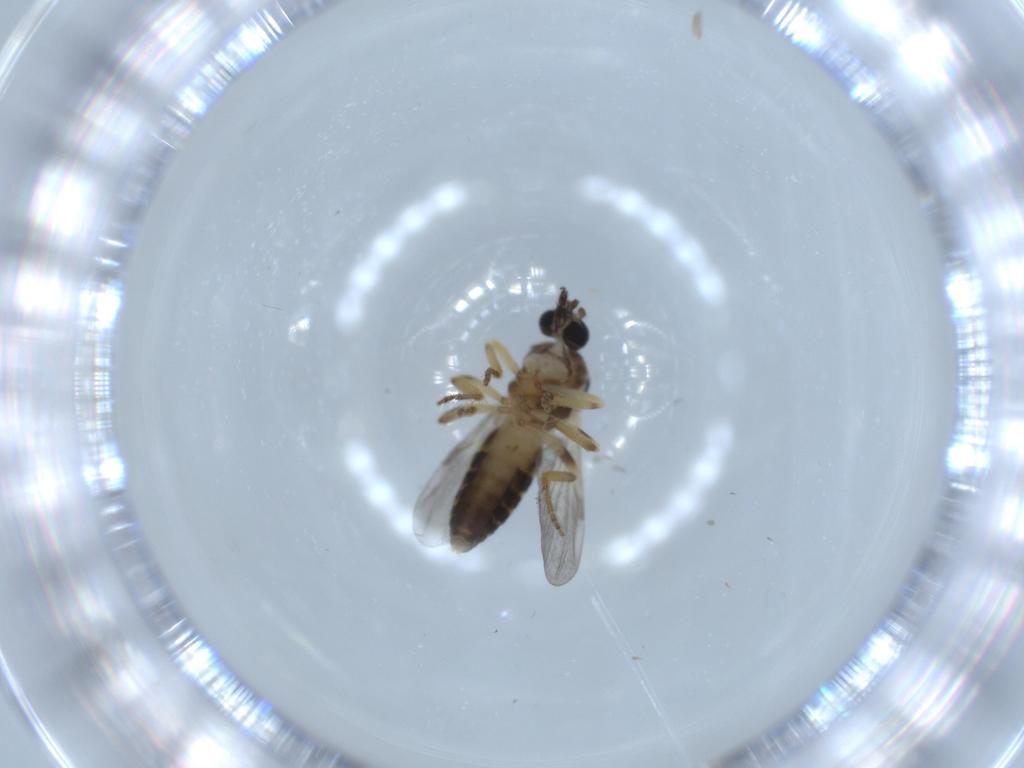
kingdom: Animalia
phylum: Arthropoda
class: Insecta
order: Diptera
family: Ceratopogonidae
